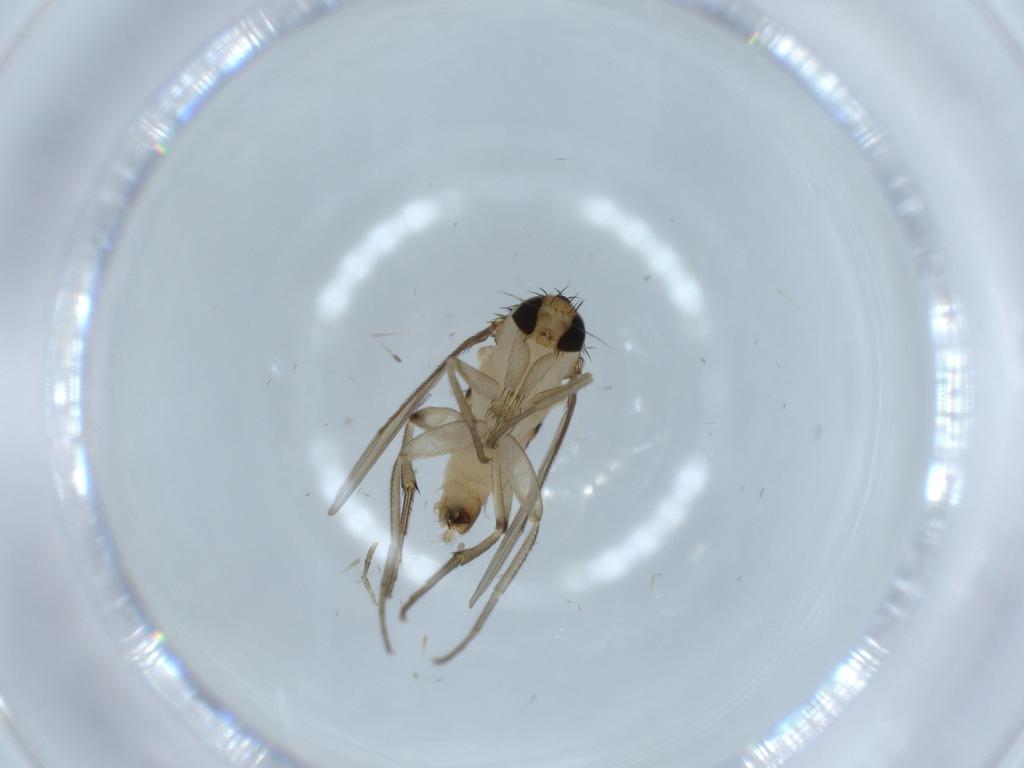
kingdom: Animalia
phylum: Arthropoda
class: Insecta
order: Diptera
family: Phoridae
